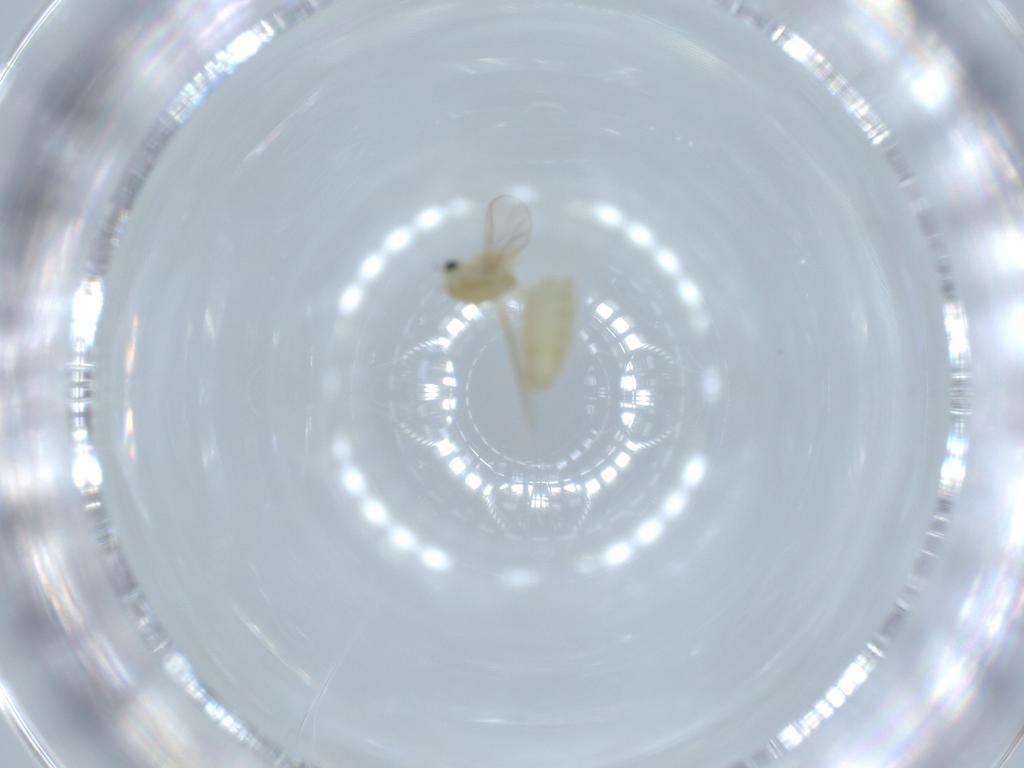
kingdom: Animalia
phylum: Arthropoda
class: Insecta
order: Diptera
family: Chironomidae
